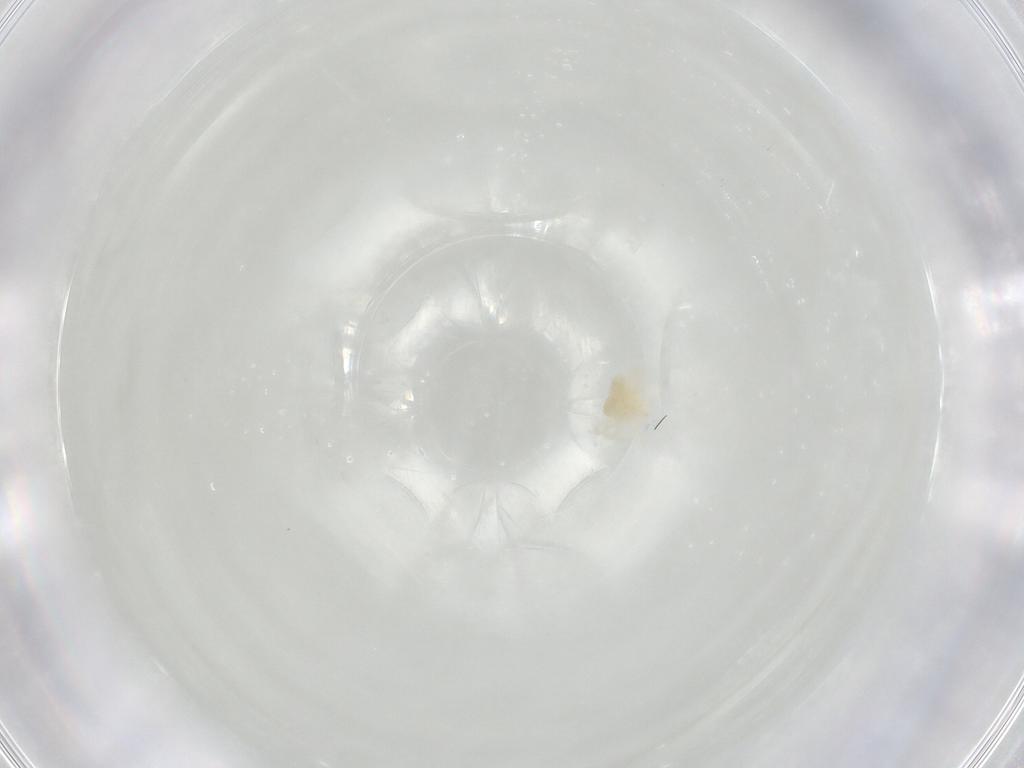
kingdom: Animalia
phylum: Arthropoda
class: Arachnida
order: Trombidiformes
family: Anystidae
